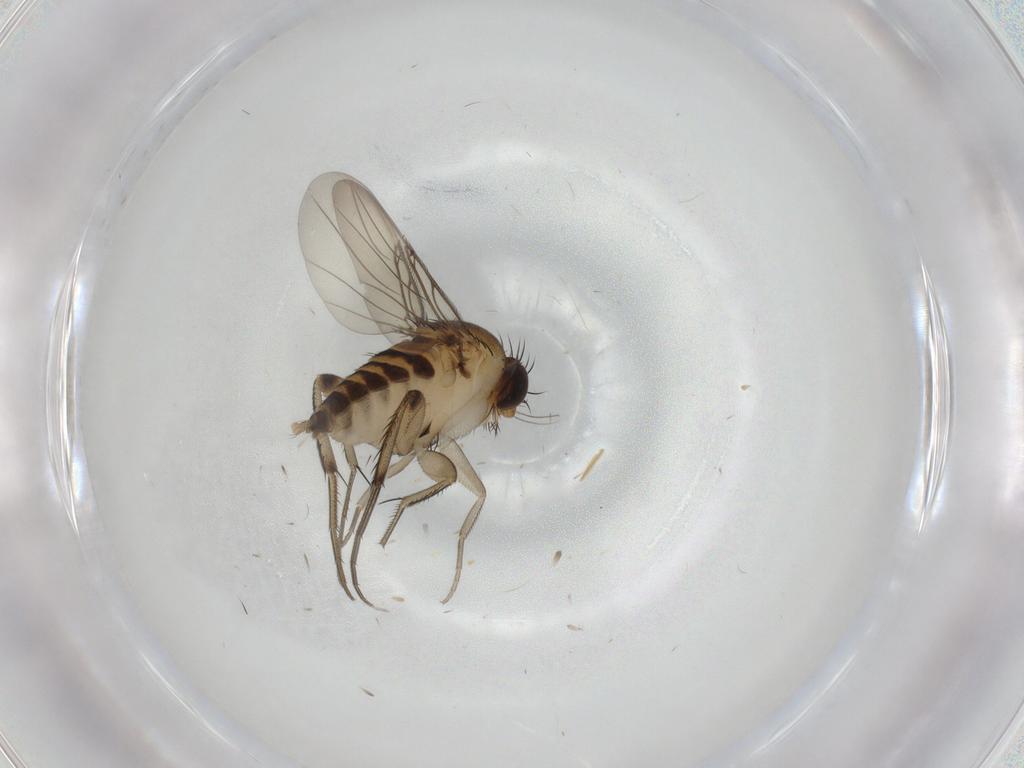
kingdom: Animalia
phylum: Arthropoda
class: Insecta
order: Diptera
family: Phoridae
